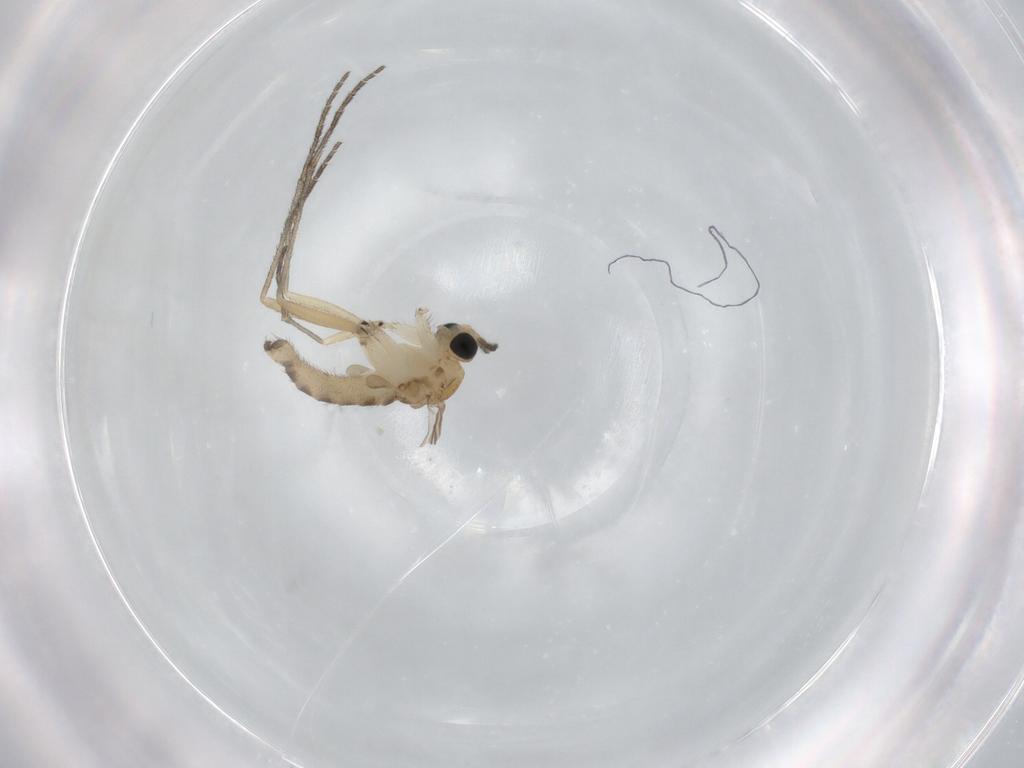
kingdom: Animalia
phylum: Arthropoda
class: Insecta
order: Diptera
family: Sciaridae
